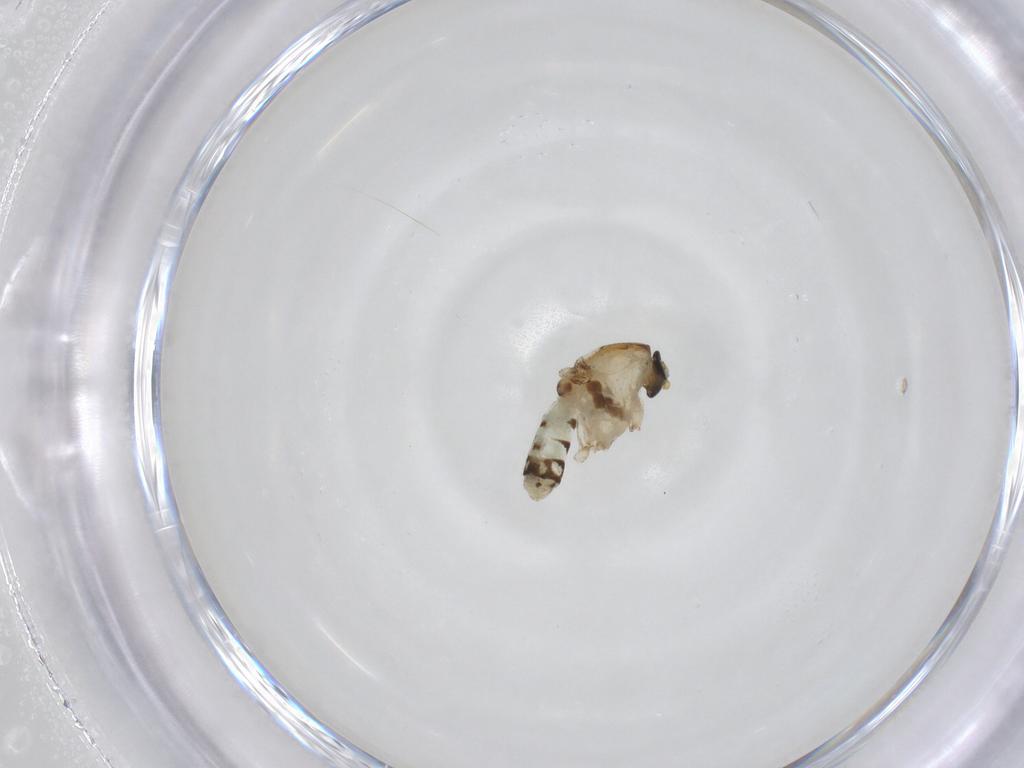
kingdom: Animalia
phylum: Arthropoda
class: Insecta
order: Diptera
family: Ceratopogonidae
